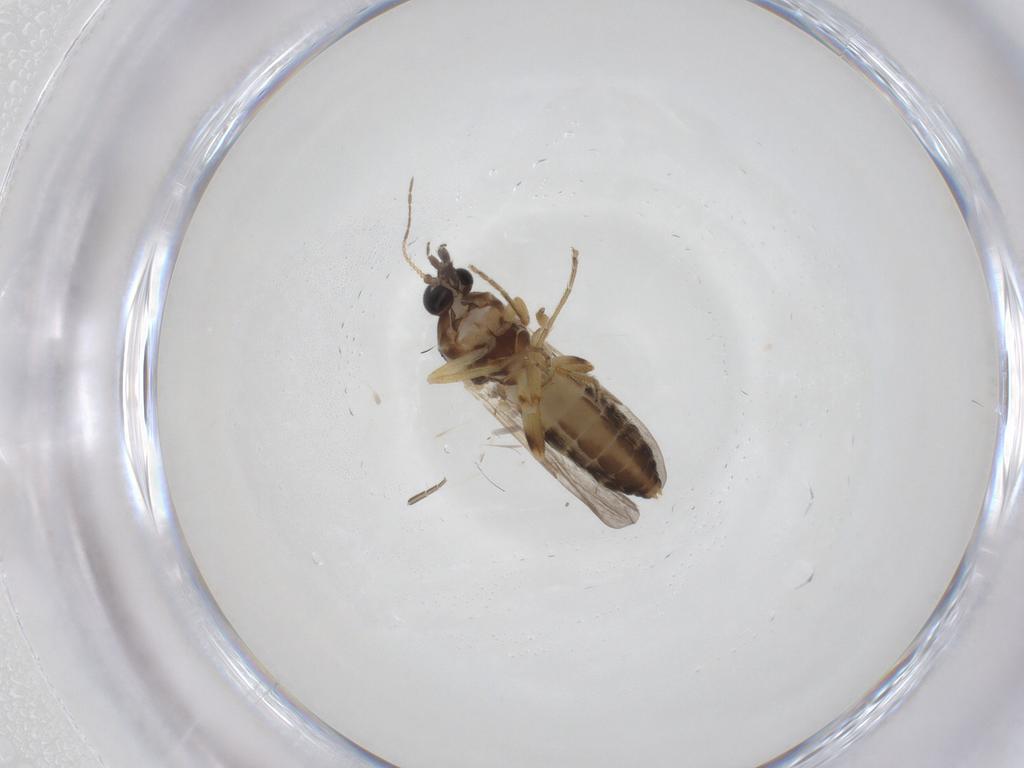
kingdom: Animalia
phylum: Arthropoda
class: Insecta
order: Diptera
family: Ceratopogonidae
